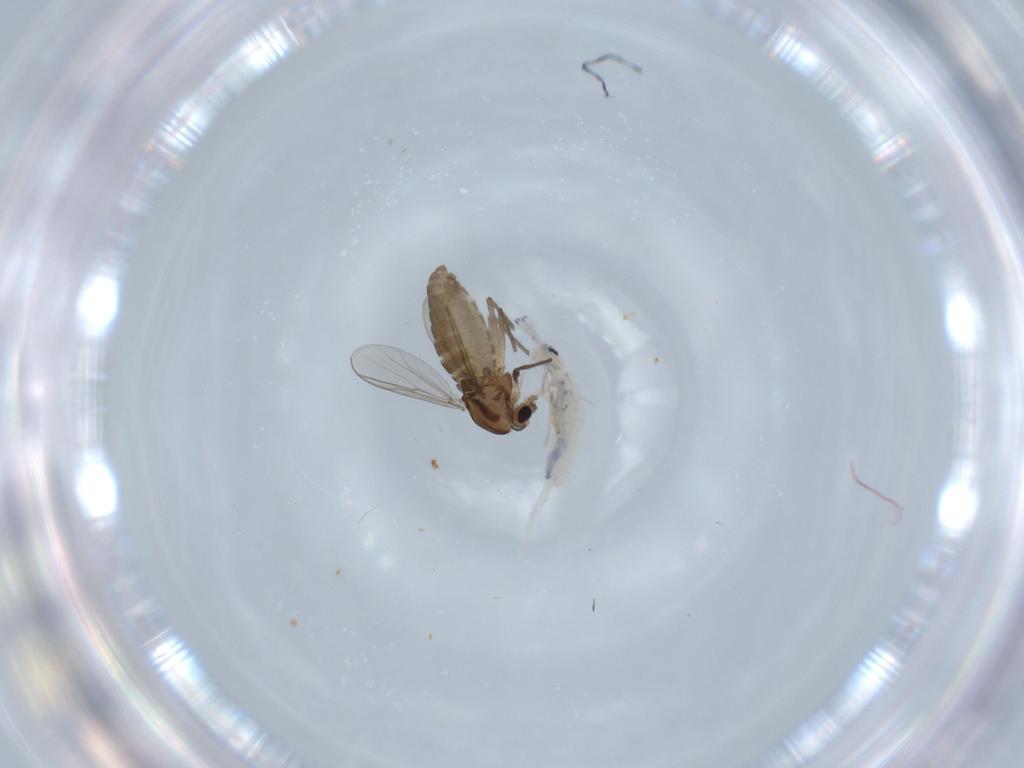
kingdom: Animalia
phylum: Arthropoda
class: Insecta
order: Diptera
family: Chironomidae
